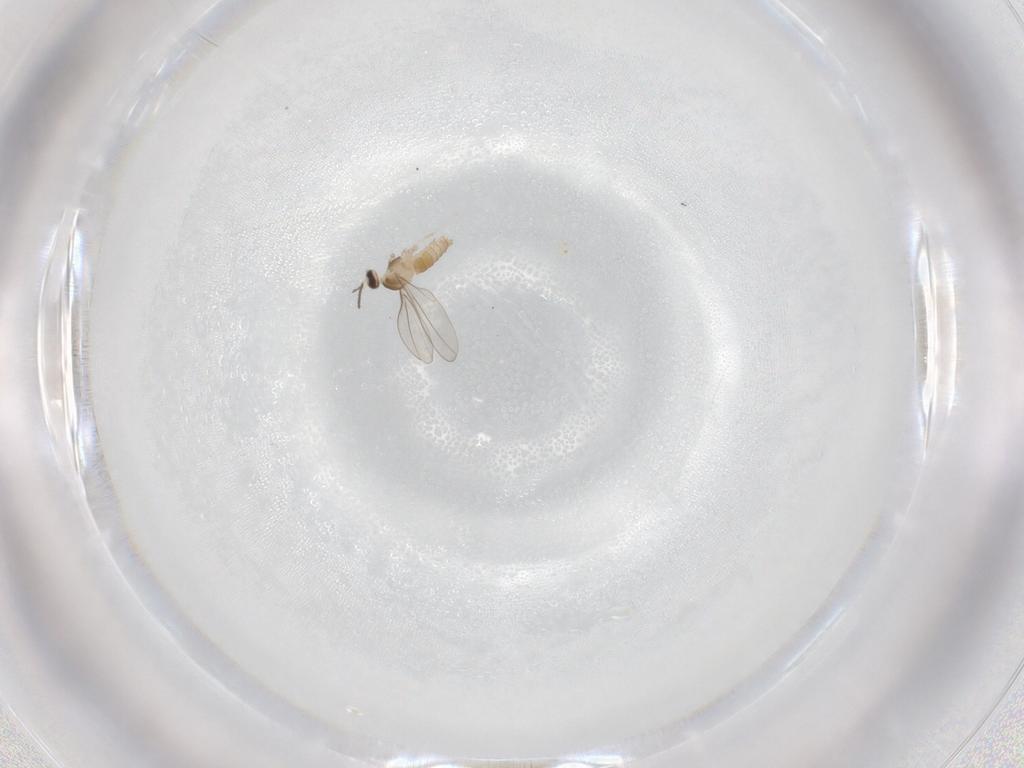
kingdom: Animalia
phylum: Arthropoda
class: Insecta
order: Diptera
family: Cecidomyiidae
